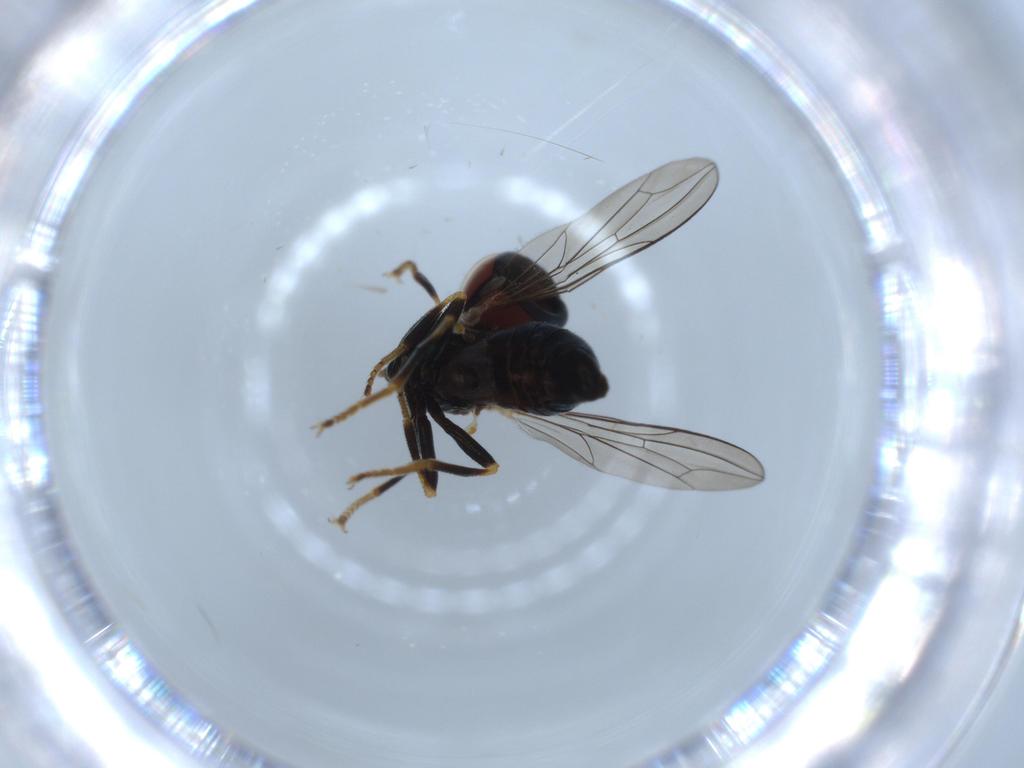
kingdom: Animalia
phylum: Arthropoda
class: Insecta
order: Diptera
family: Pipunculidae
